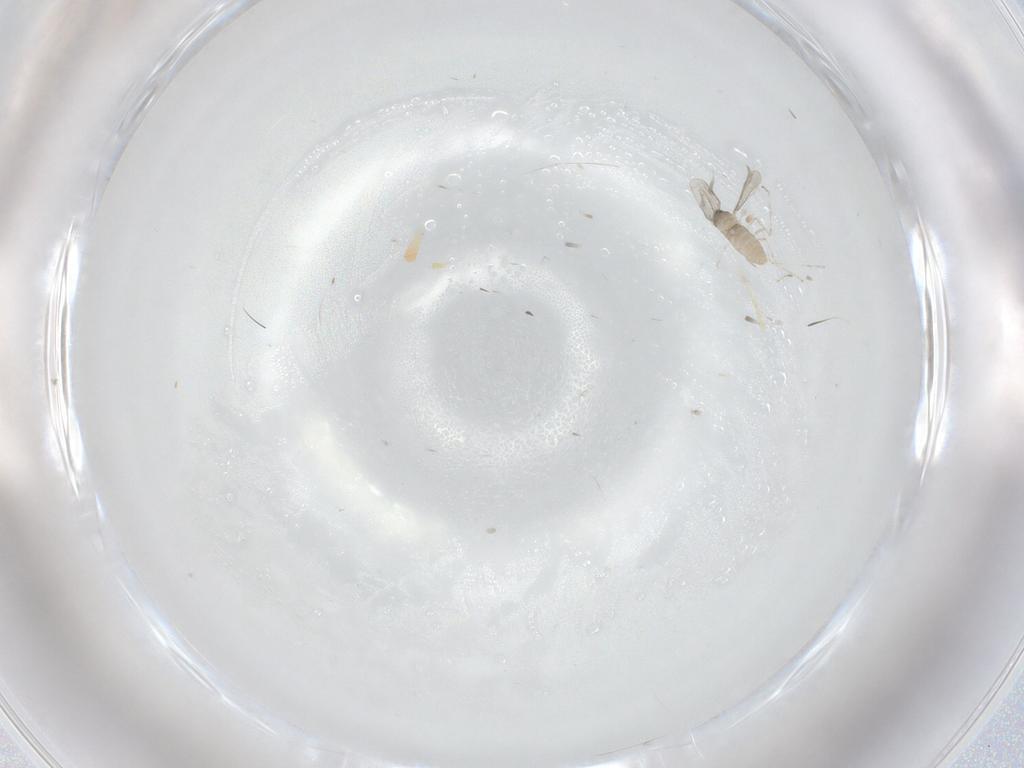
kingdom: Animalia
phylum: Arthropoda
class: Insecta
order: Diptera
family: Cecidomyiidae
